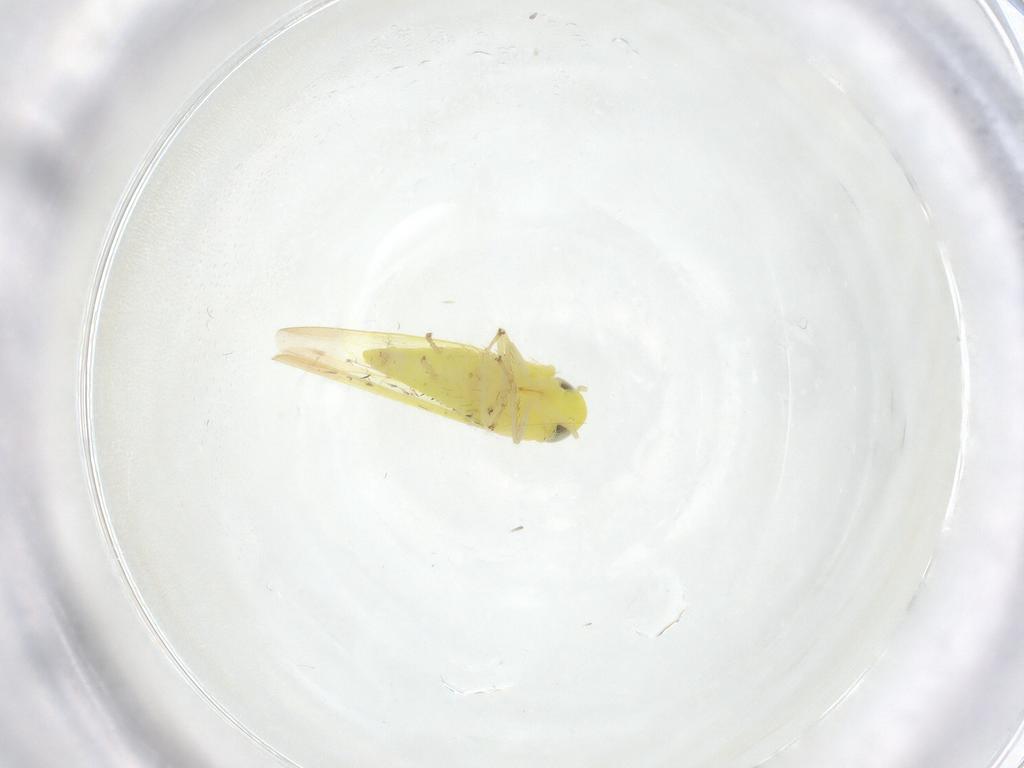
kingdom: Animalia
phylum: Arthropoda
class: Insecta
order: Hemiptera
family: Cicadellidae
